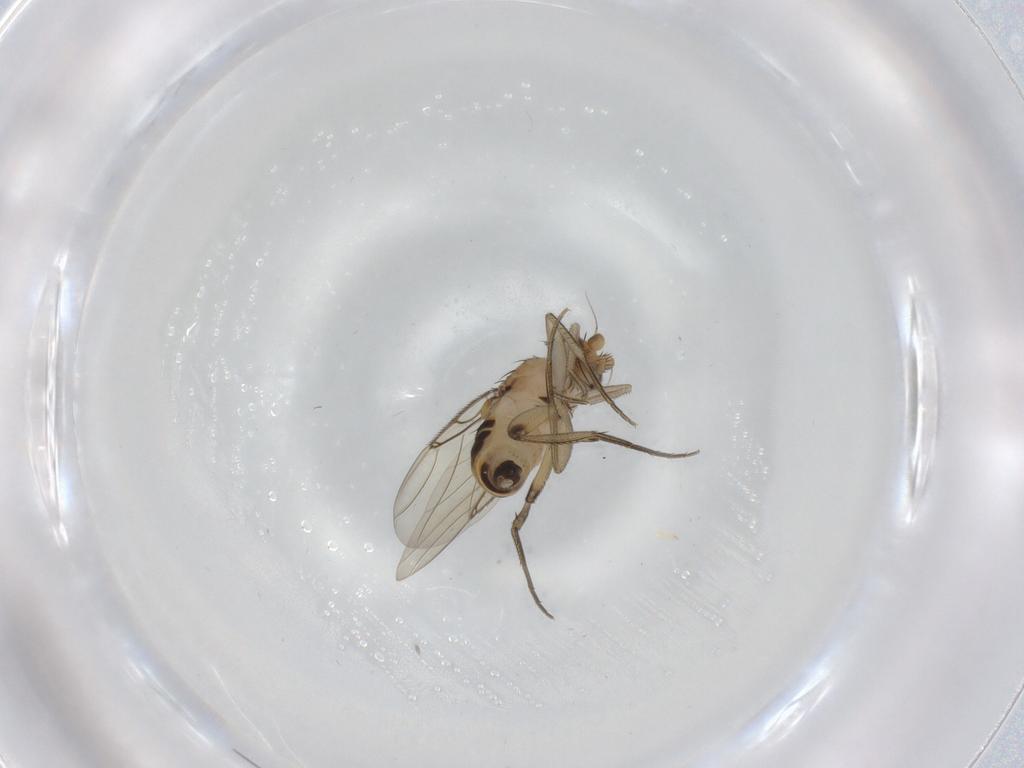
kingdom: Animalia
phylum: Arthropoda
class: Insecta
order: Diptera
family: Phoridae
